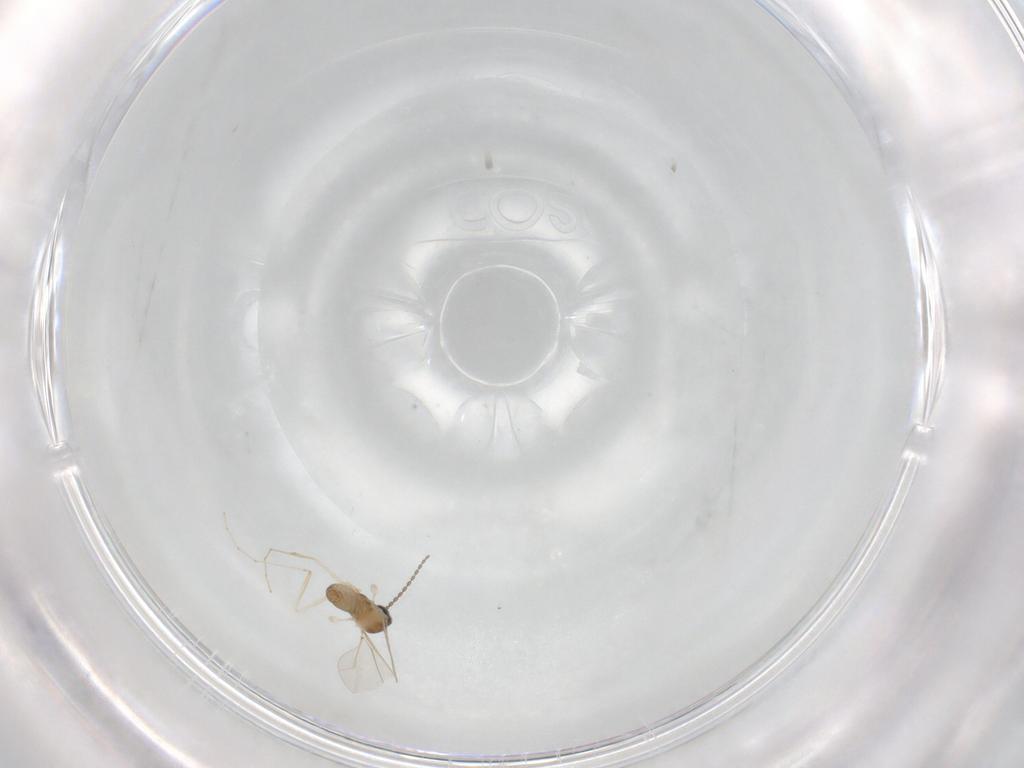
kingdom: Animalia
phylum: Arthropoda
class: Insecta
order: Diptera
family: Cecidomyiidae
